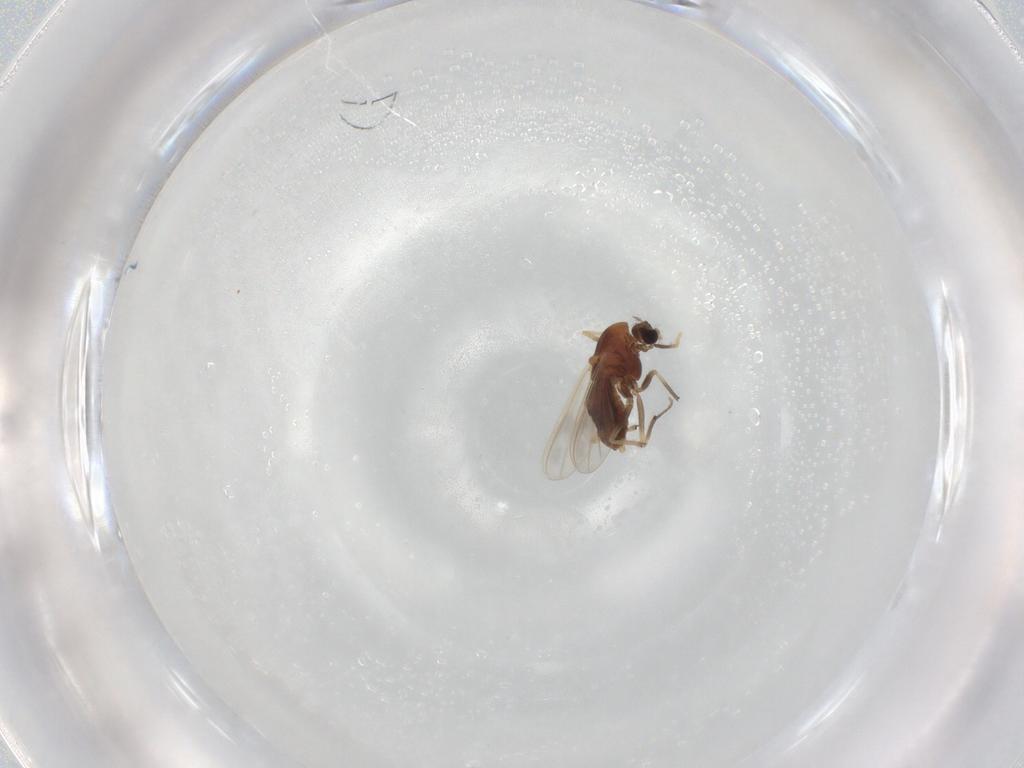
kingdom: Animalia
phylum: Arthropoda
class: Insecta
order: Diptera
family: Chironomidae
